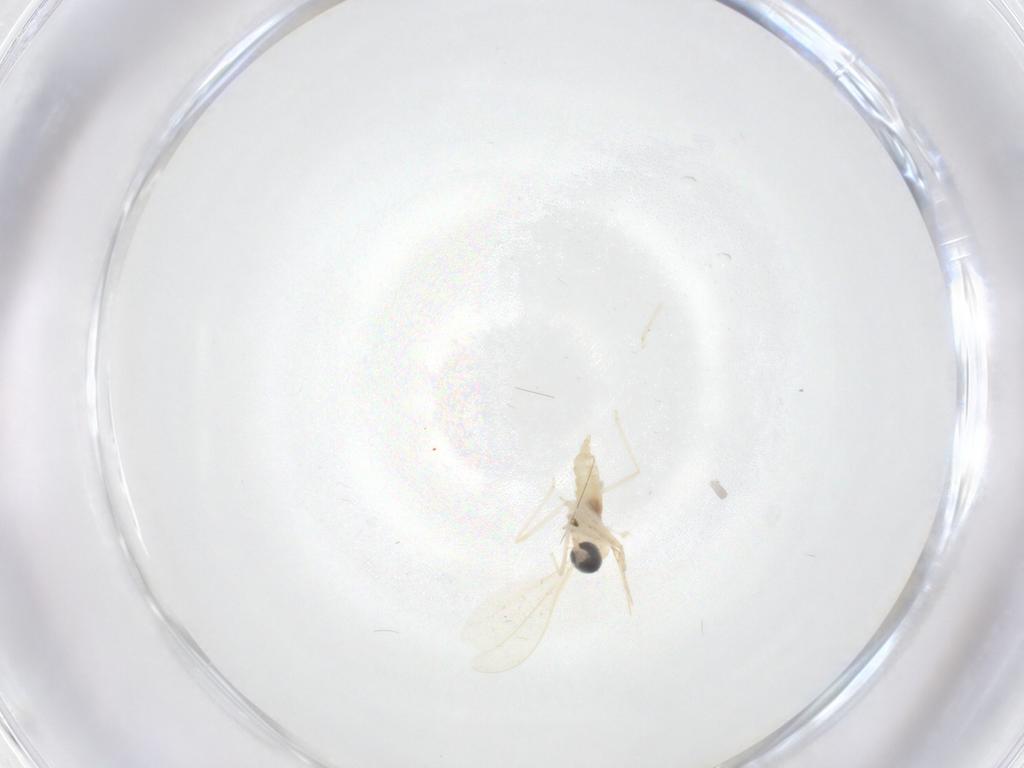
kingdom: Animalia
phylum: Arthropoda
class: Insecta
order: Diptera
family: Cecidomyiidae
